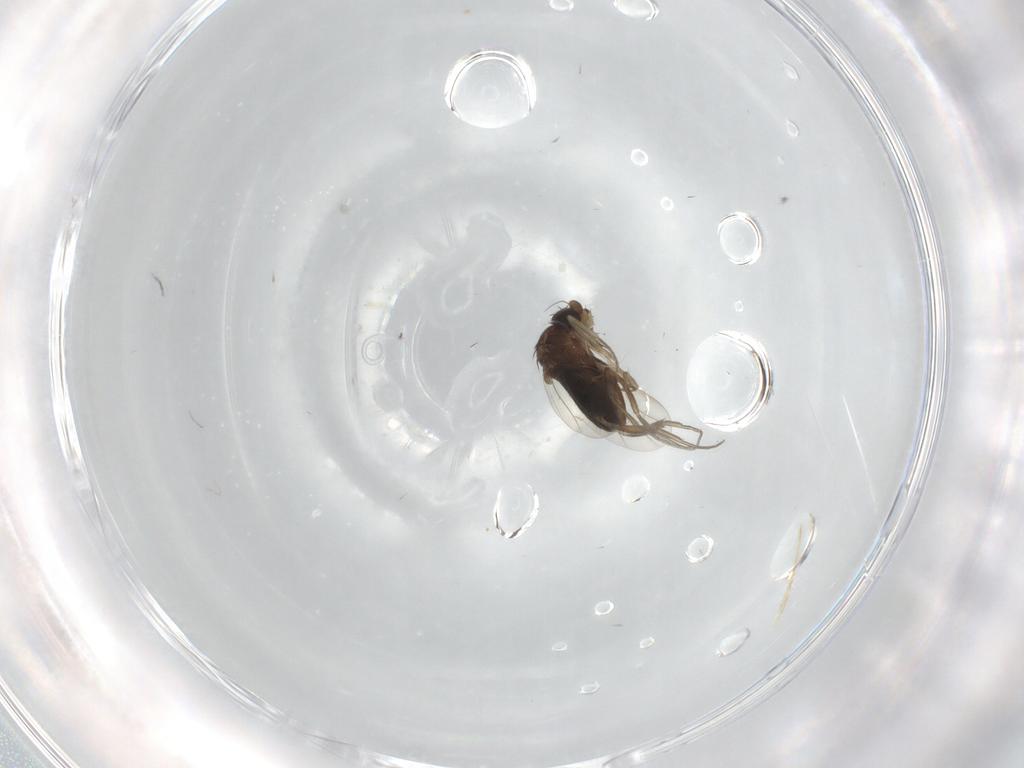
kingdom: Animalia
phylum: Arthropoda
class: Insecta
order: Diptera
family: Phoridae
